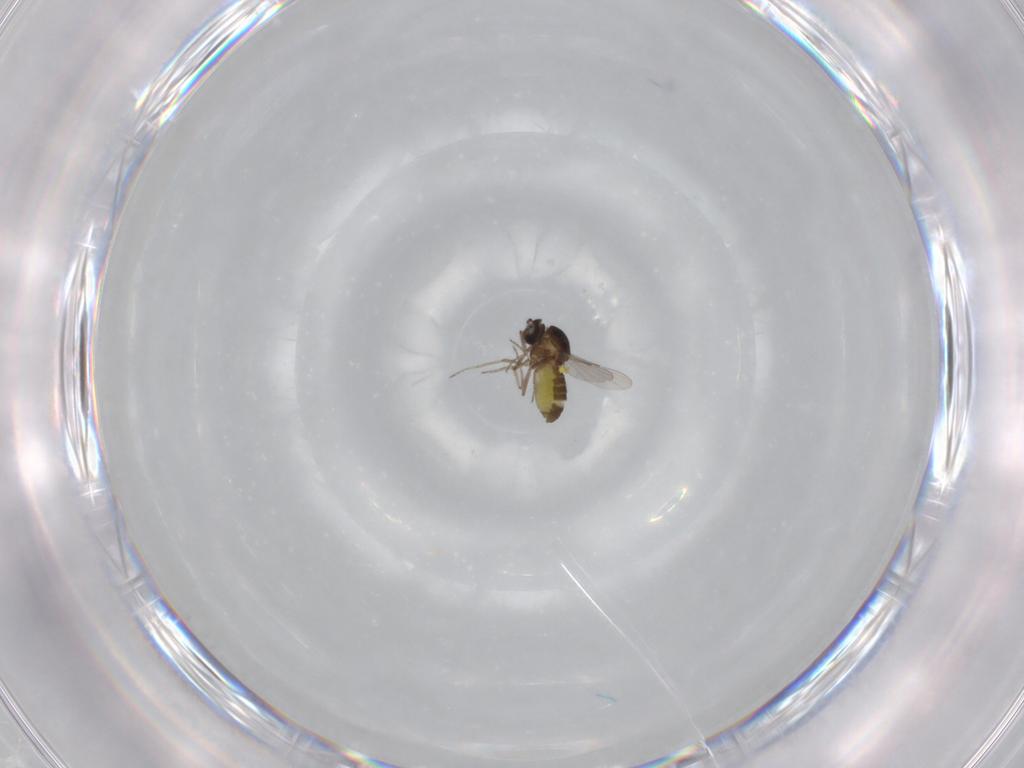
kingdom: Animalia
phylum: Arthropoda
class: Insecta
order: Diptera
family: Ceratopogonidae
